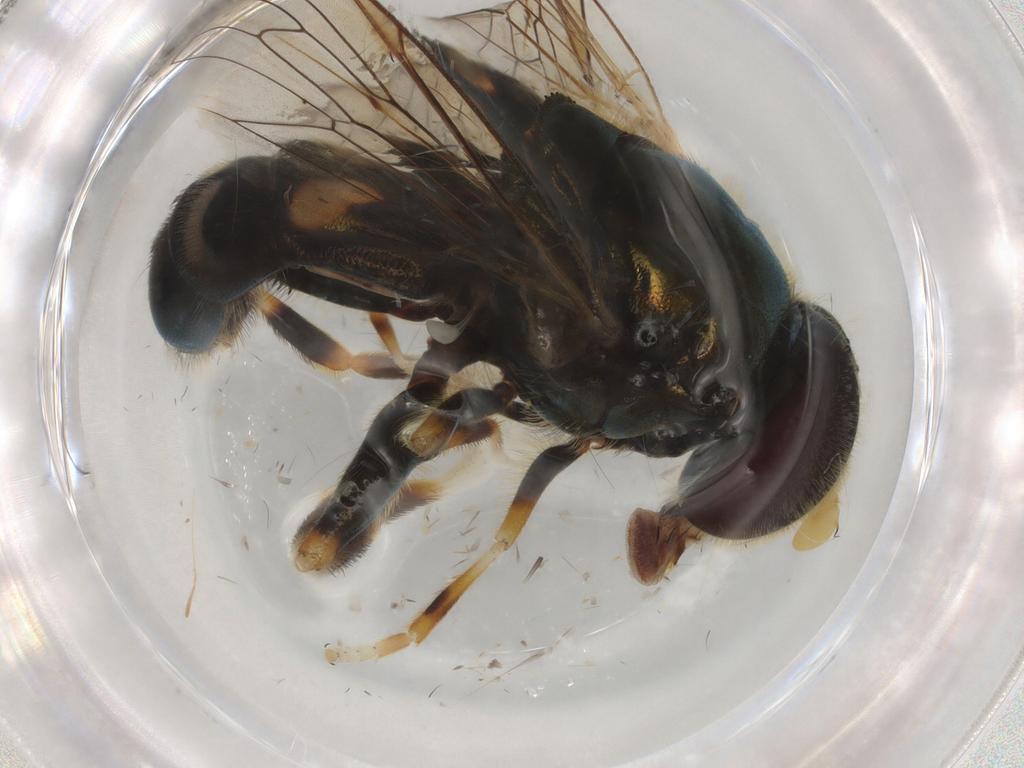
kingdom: Animalia
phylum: Arthropoda
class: Insecta
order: Diptera
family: Syrphidae
